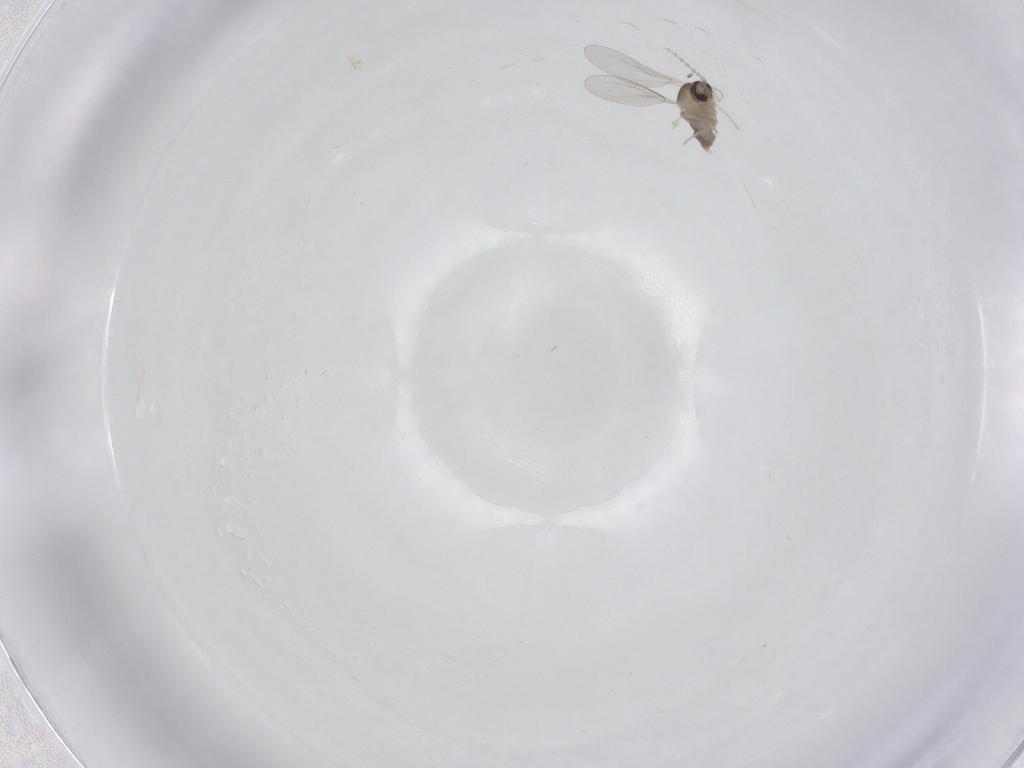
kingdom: Animalia
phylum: Arthropoda
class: Insecta
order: Diptera
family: Cecidomyiidae
